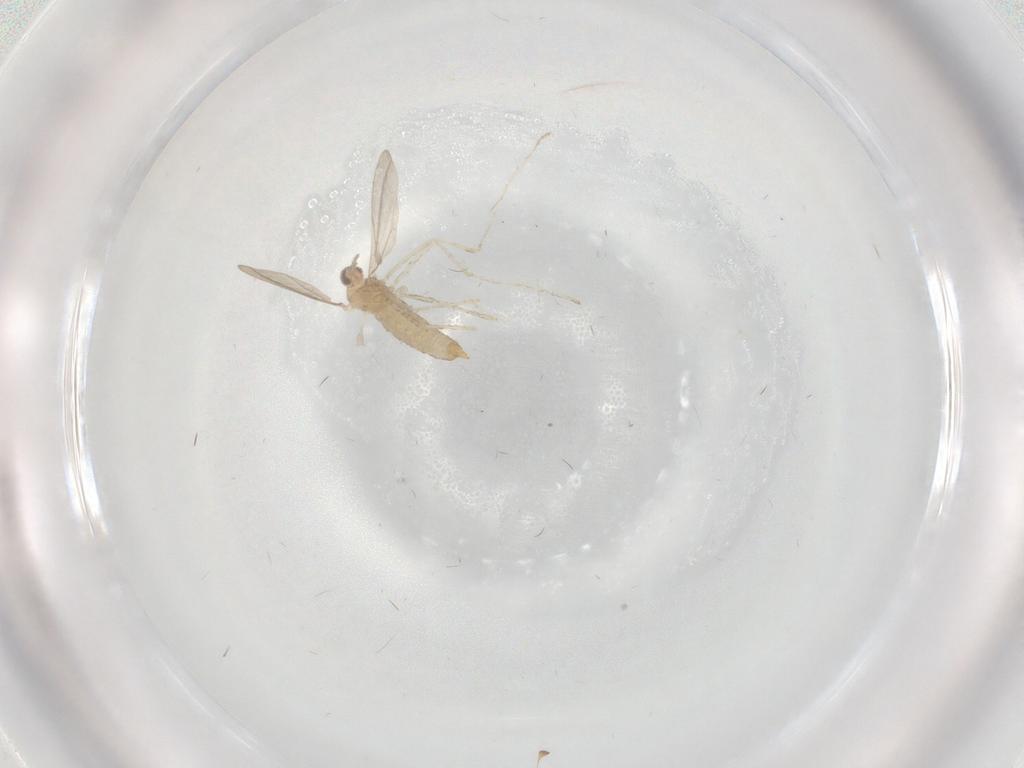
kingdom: Animalia
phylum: Arthropoda
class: Insecta
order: Diptera
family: Cecidomyiidae
